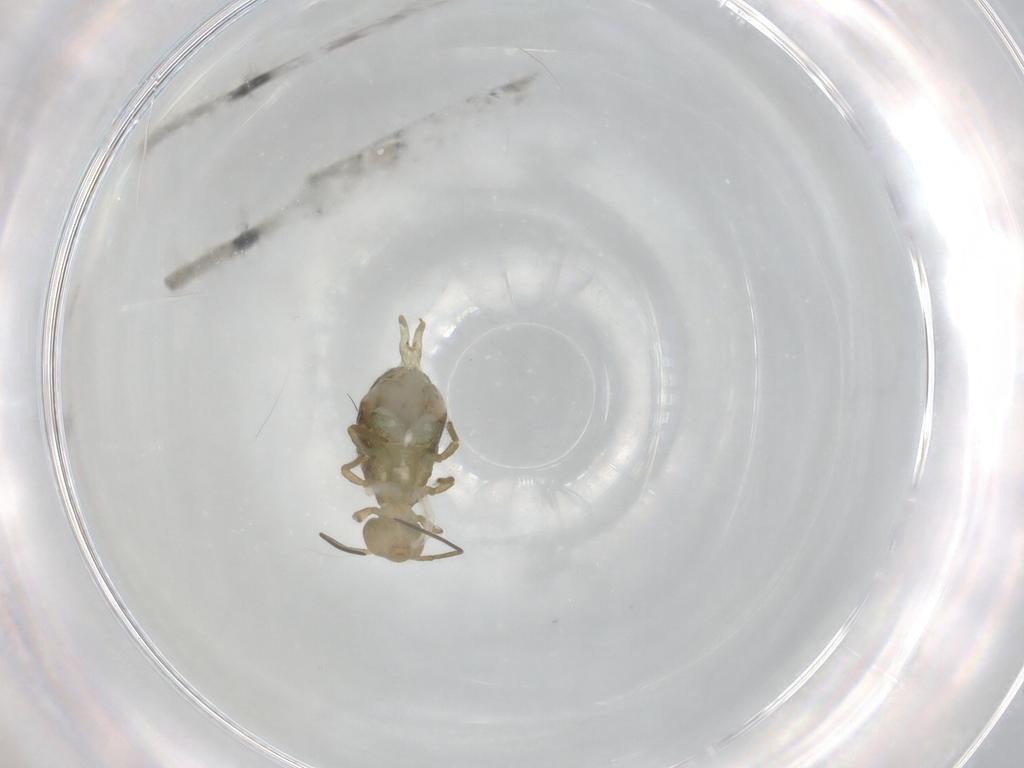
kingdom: Animalia
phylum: Arthropoda
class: Collembola
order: Symphypleona
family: Sminthuridae
